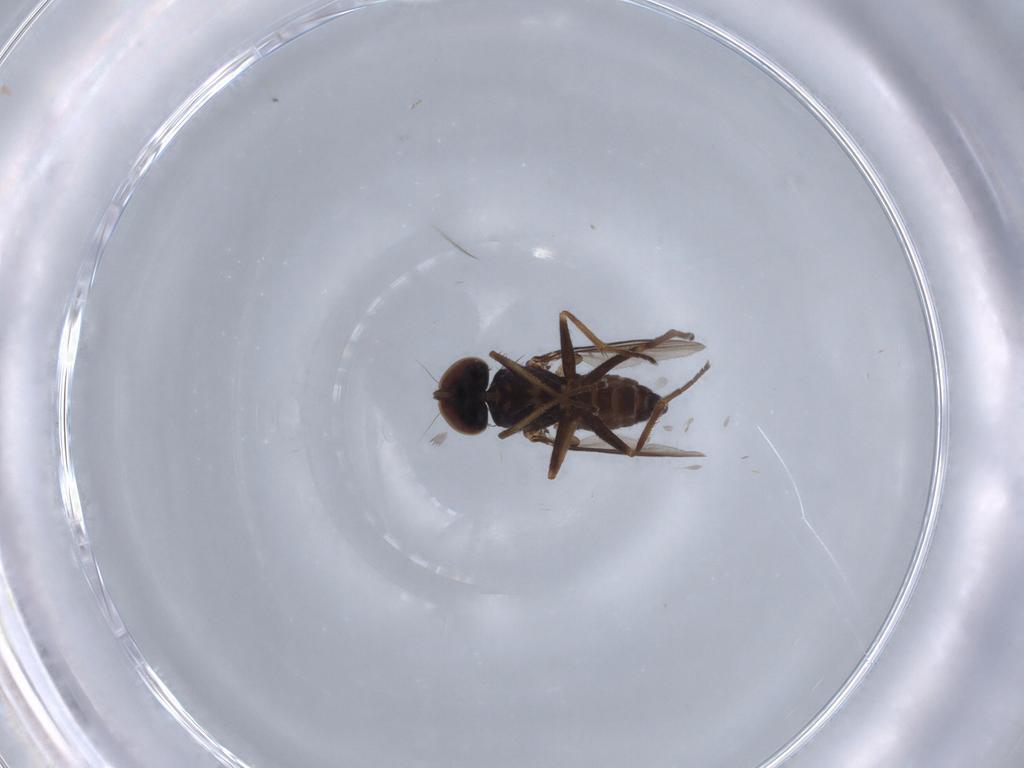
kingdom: Animalia
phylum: Arthropoda
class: Insecta
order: Diptera
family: Dolichopodidae
